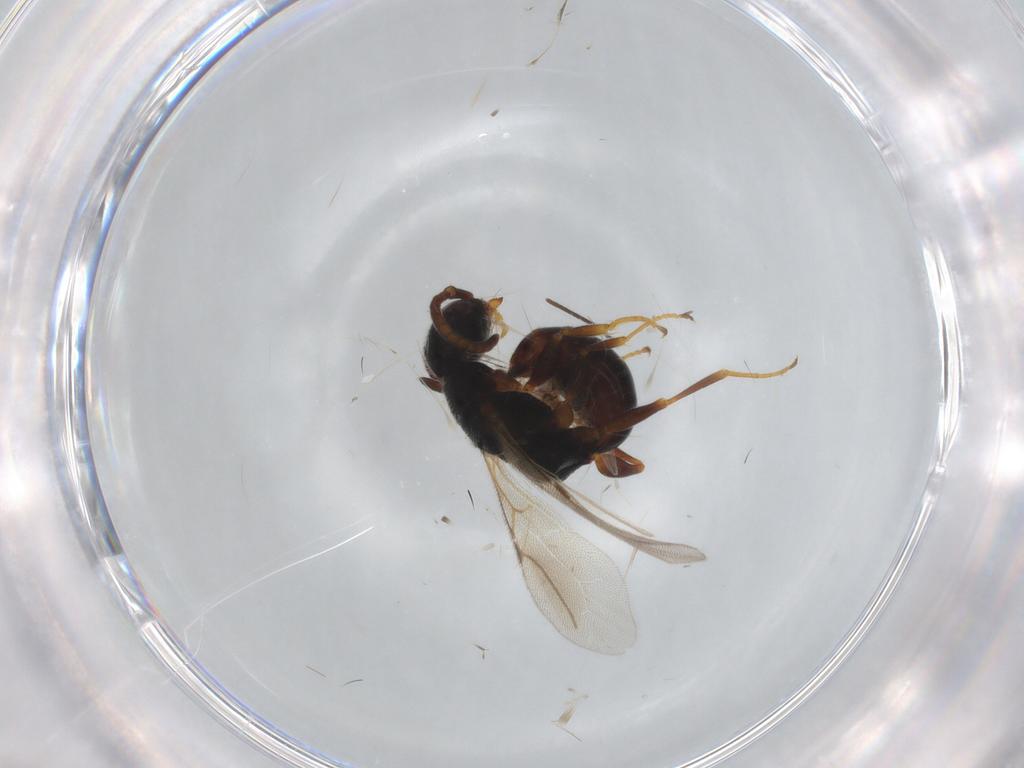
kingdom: Animalia
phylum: Arthropoda
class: Insecta
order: Hymenoptera
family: Bethylidae
